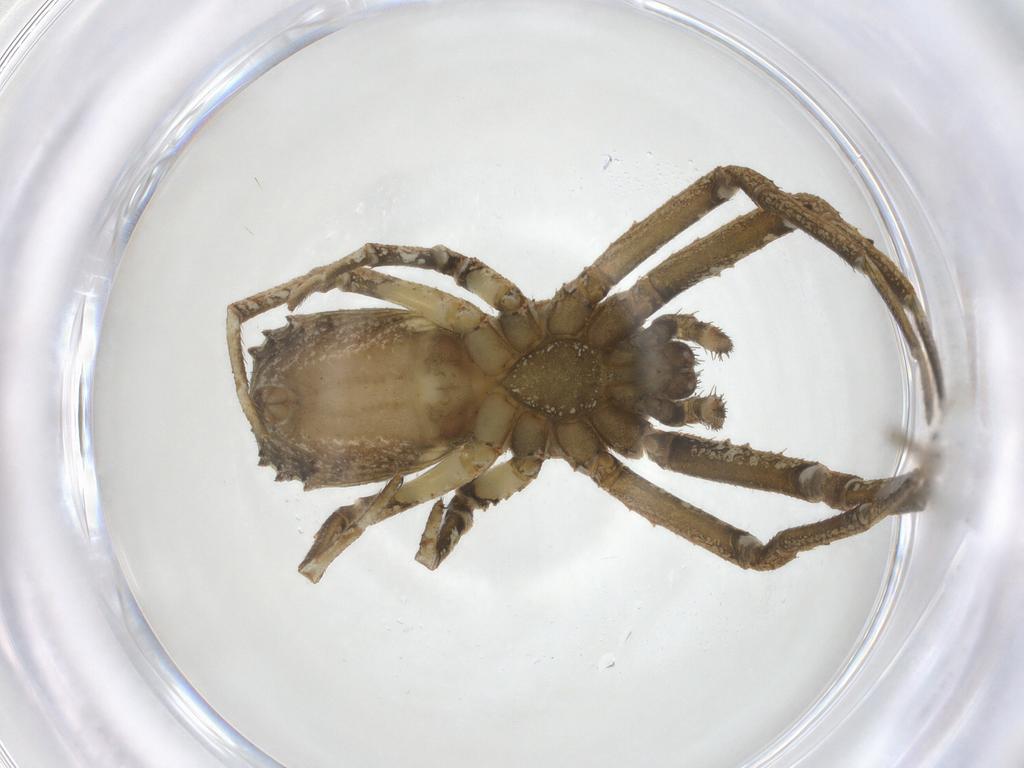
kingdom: Animalia
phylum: Arthropoda
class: Arachnida
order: Araneae
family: Thomisidae
